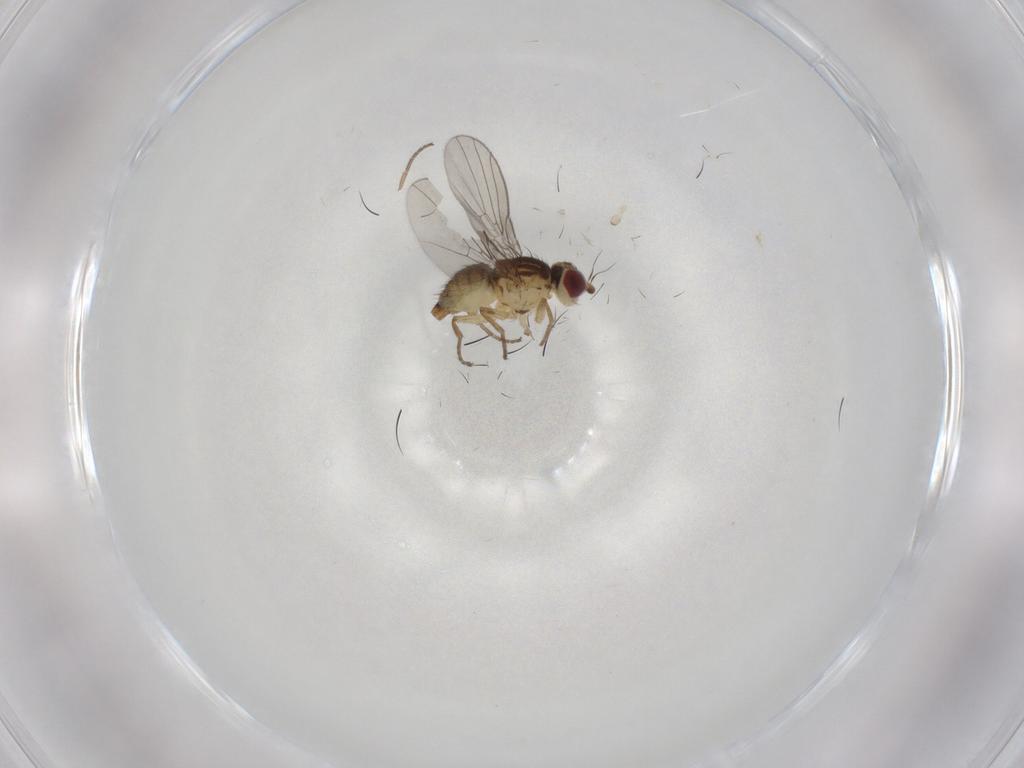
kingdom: Animalia
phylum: Arthropoda
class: Insecta
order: Diptera
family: Agromyzidae
